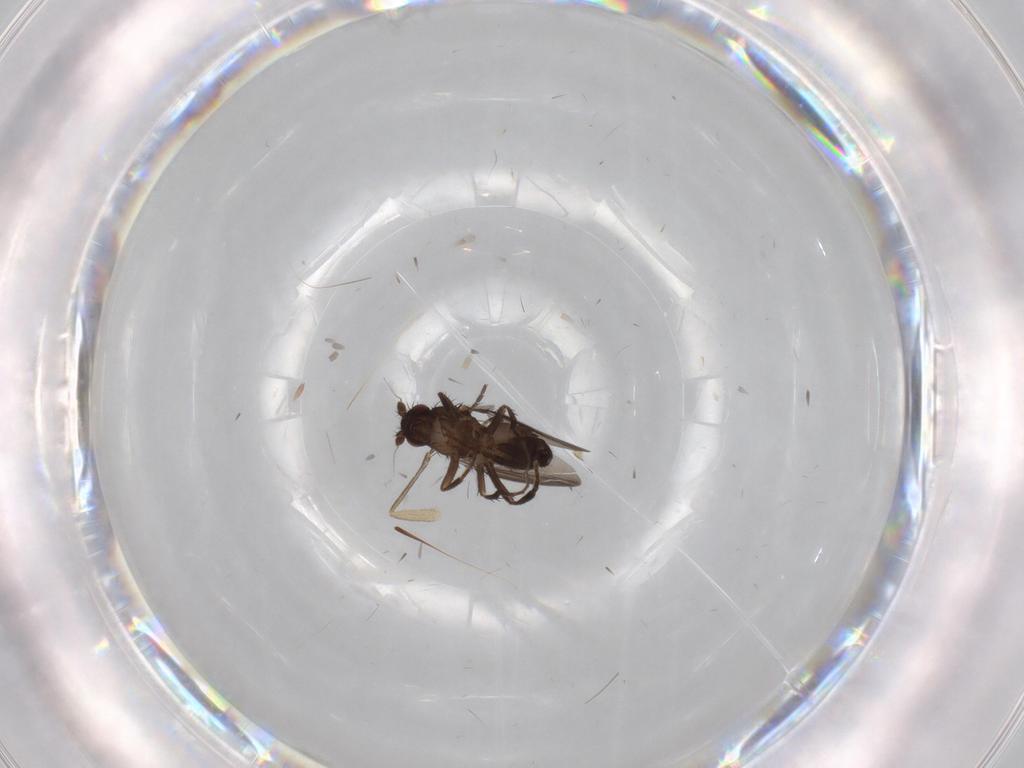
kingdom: Animalia
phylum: Arthropoda
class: Insecta
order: Diptera
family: Sphaeroceridae
